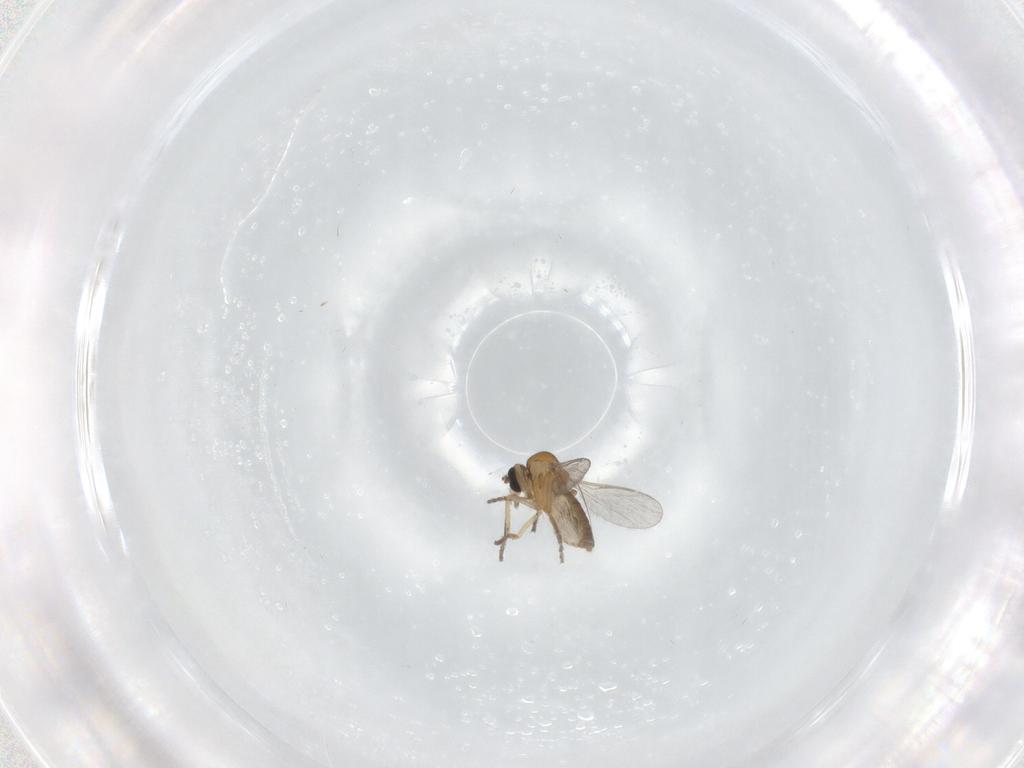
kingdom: Animalia
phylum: Arthropoda
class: Insecta
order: Diptera
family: Ceratopogonidae
